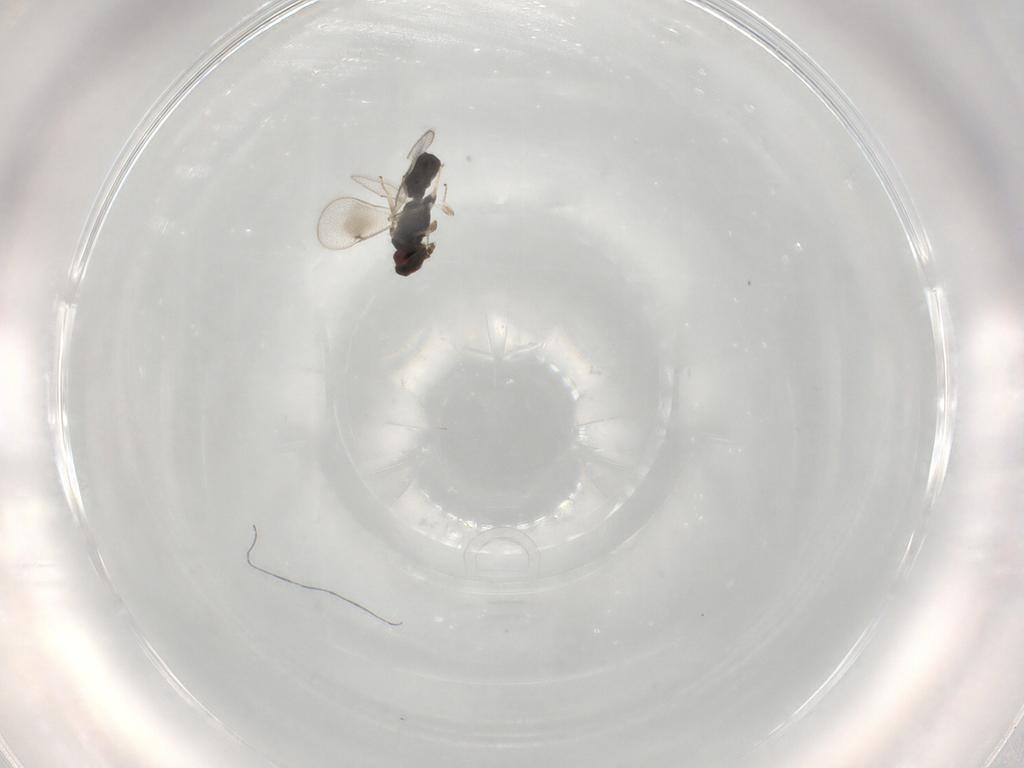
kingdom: Animalia
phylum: Arthropoda
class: Insecta
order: Hymenoptera
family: Eulophidae
